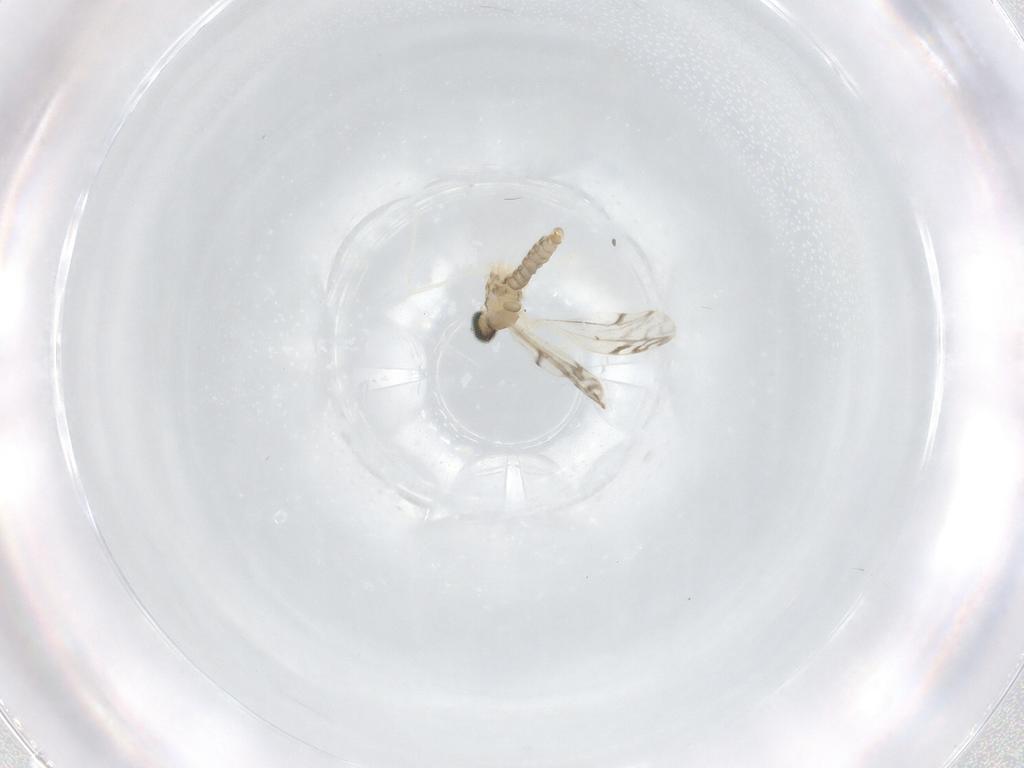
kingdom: Animalia
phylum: Arthropoda
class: Insecta
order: Diptera
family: Cecidomyiidae
